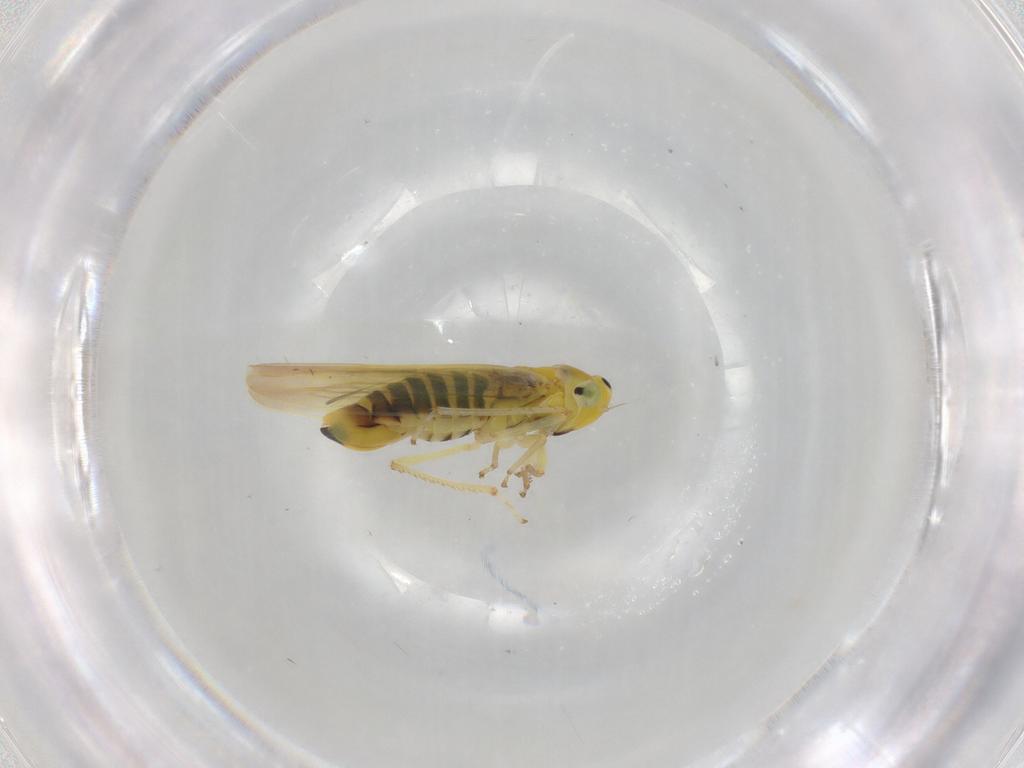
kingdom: Animalia
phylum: Arthropoda
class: Insecta
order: Hemiptera
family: Cicadellidae
